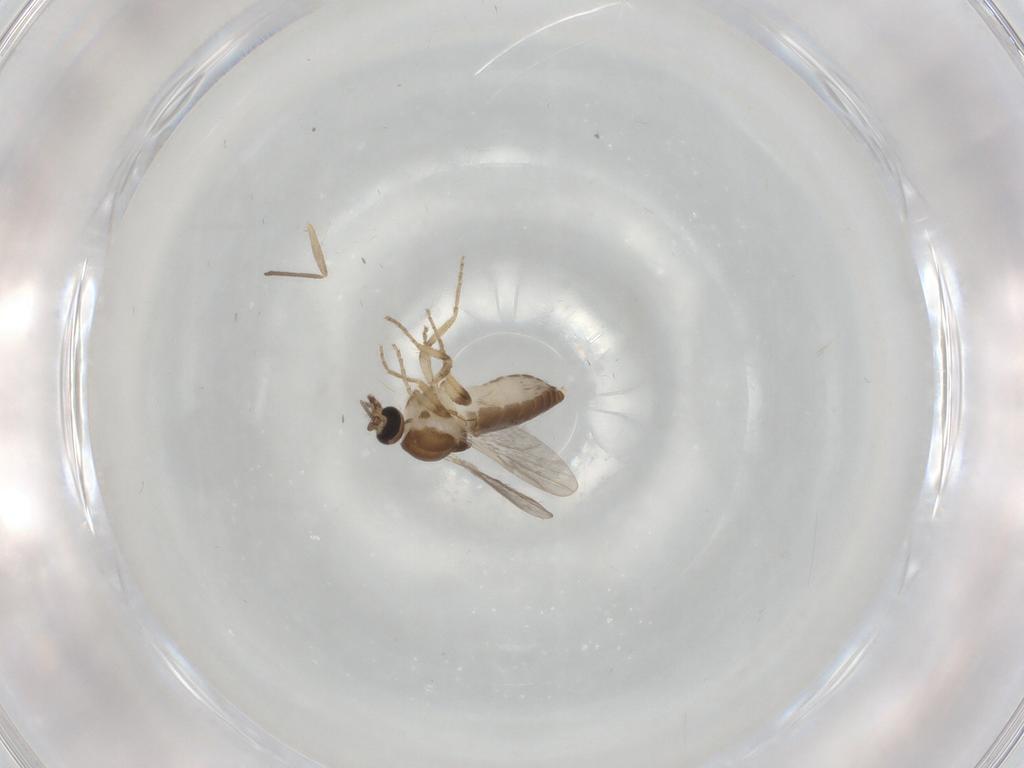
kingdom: Animalia
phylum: Arthropoda
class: Insecta
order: Diptera
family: Ceratopogonidae
